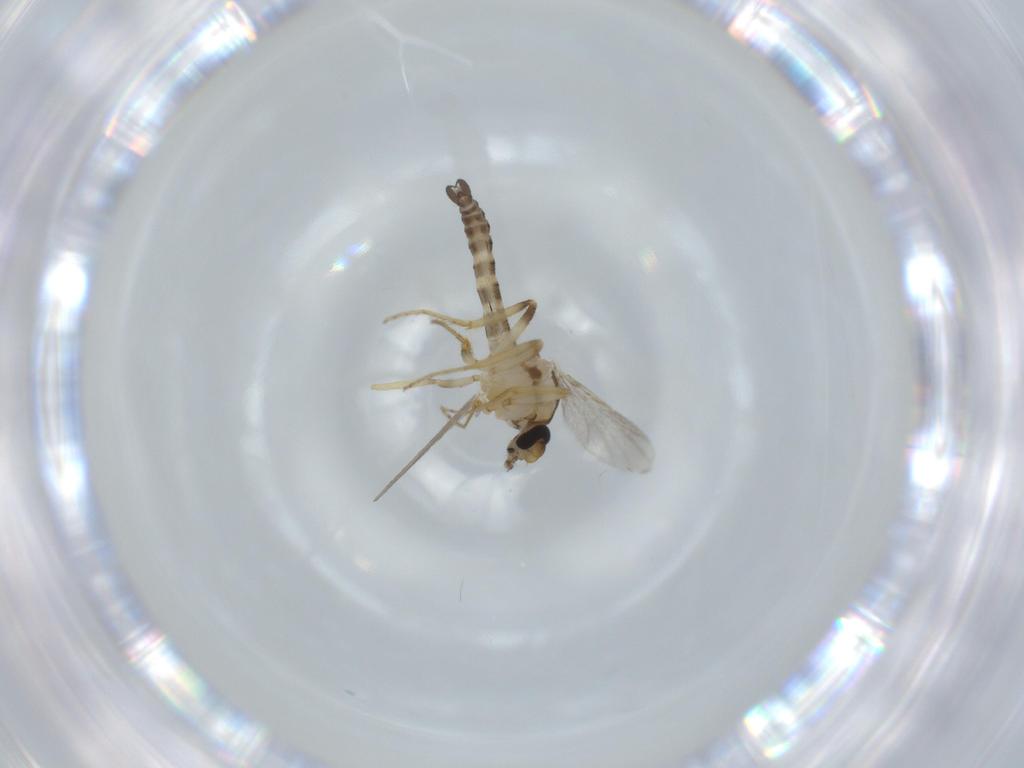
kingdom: Animalia
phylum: Arthropoda
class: Insecta
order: Diptera
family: Ceratopogonidae
